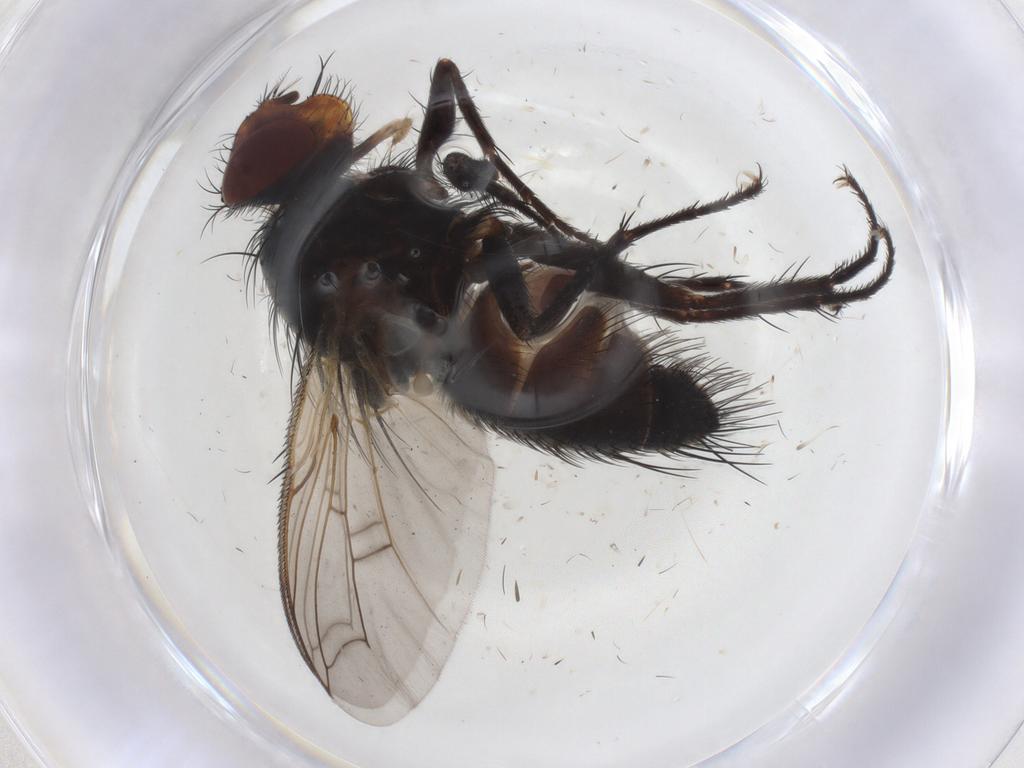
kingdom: Animalia
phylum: Arthropoda
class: Insecta
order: Diptera
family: Tachinidae
